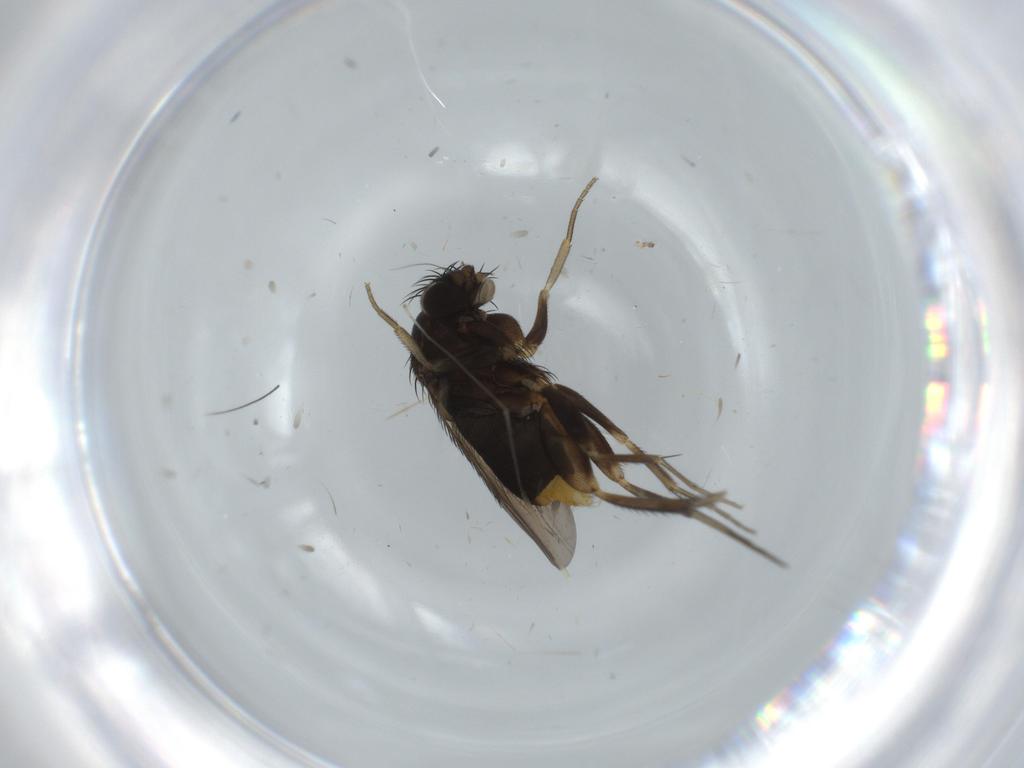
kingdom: Animalia
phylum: Arthropoda
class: Insecta
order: Diptera
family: Phoridae
